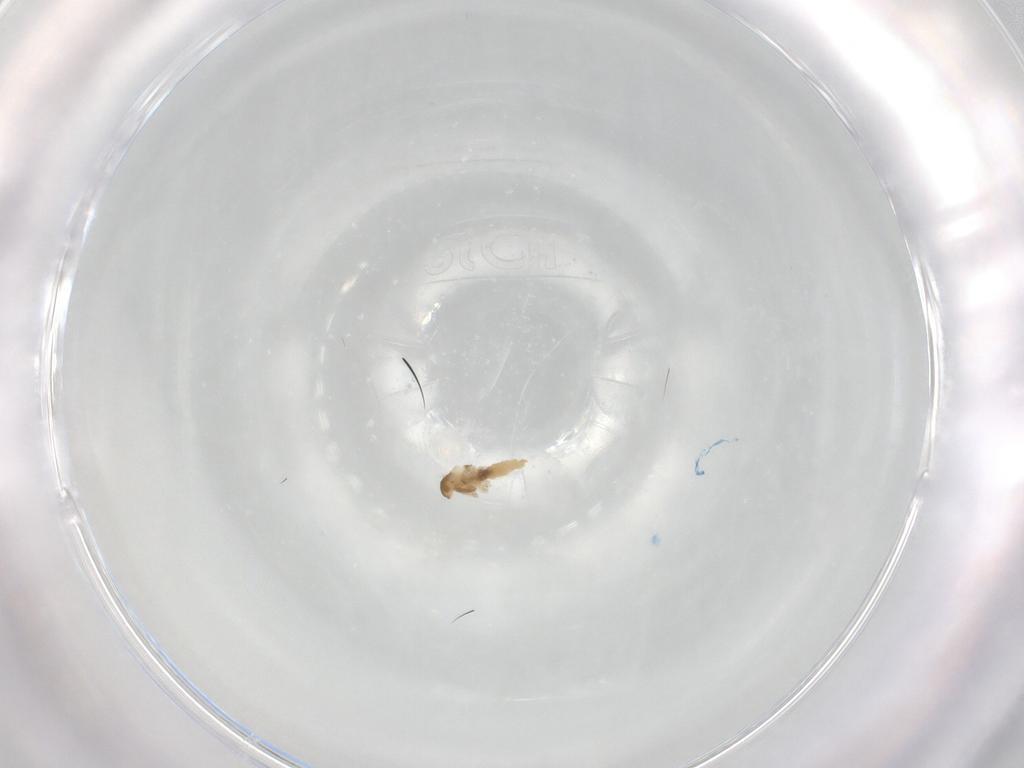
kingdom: Animalia
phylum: Arthropoda
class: Insecta
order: Diptera
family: Cecidomyiidae
